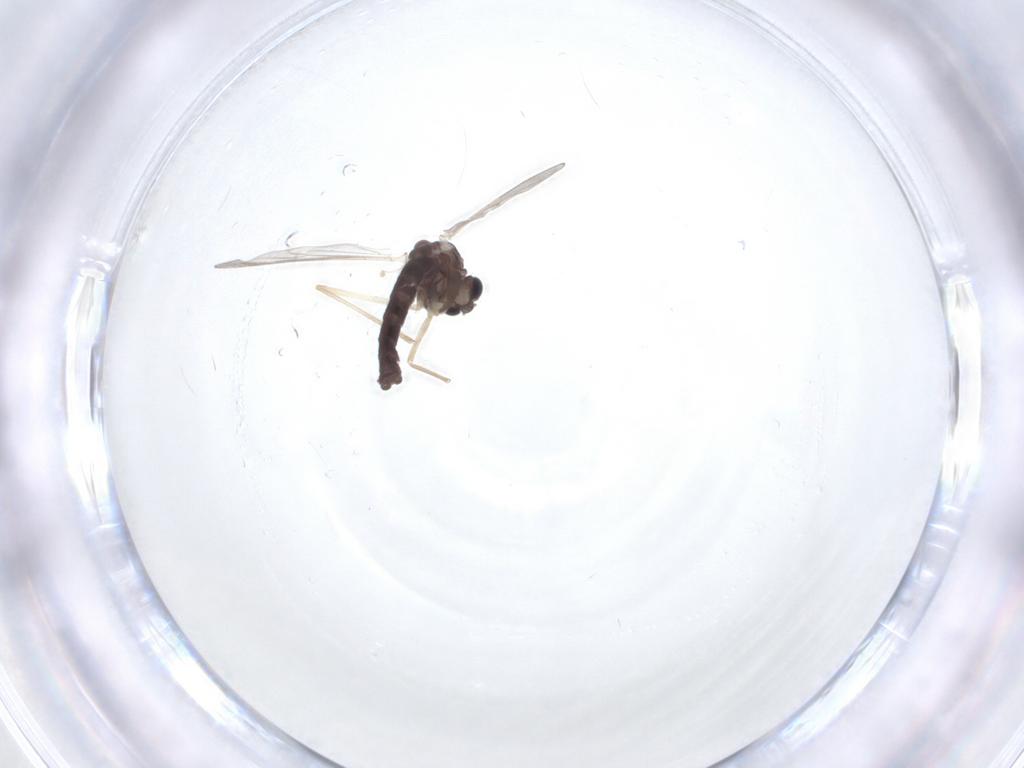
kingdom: Animalia
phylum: Arthropoda
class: Insecta
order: Diptera
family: Chironomidae
